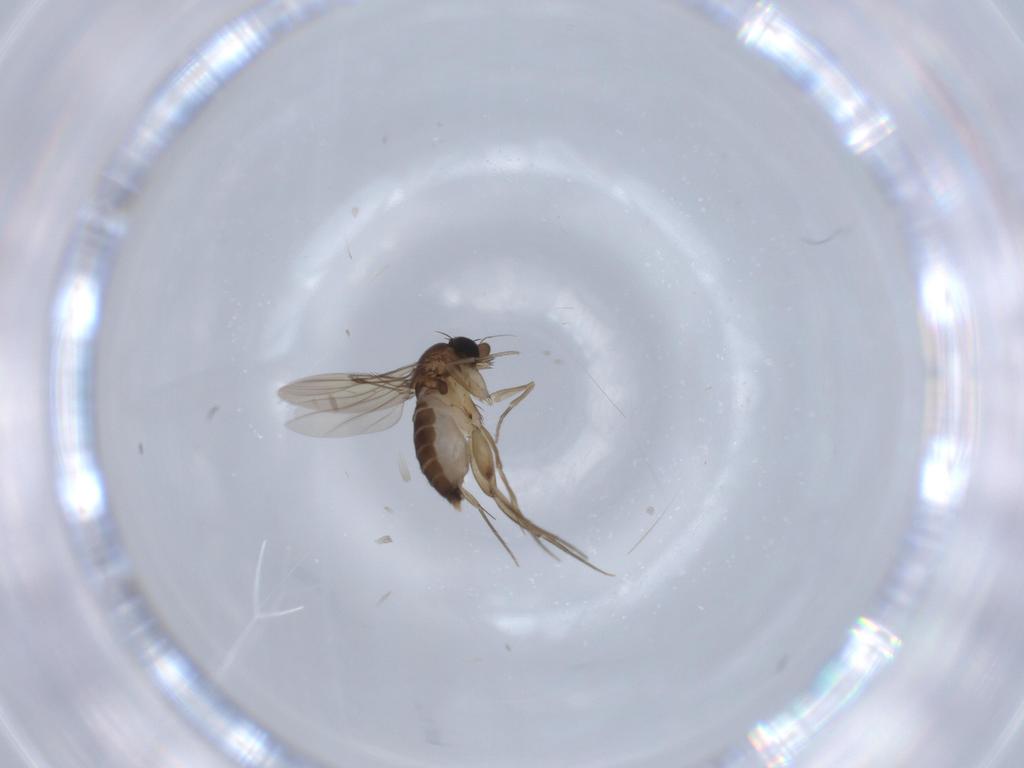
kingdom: Animalia
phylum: Arthropoda
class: Insecta
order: Diptera
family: Phoridae
